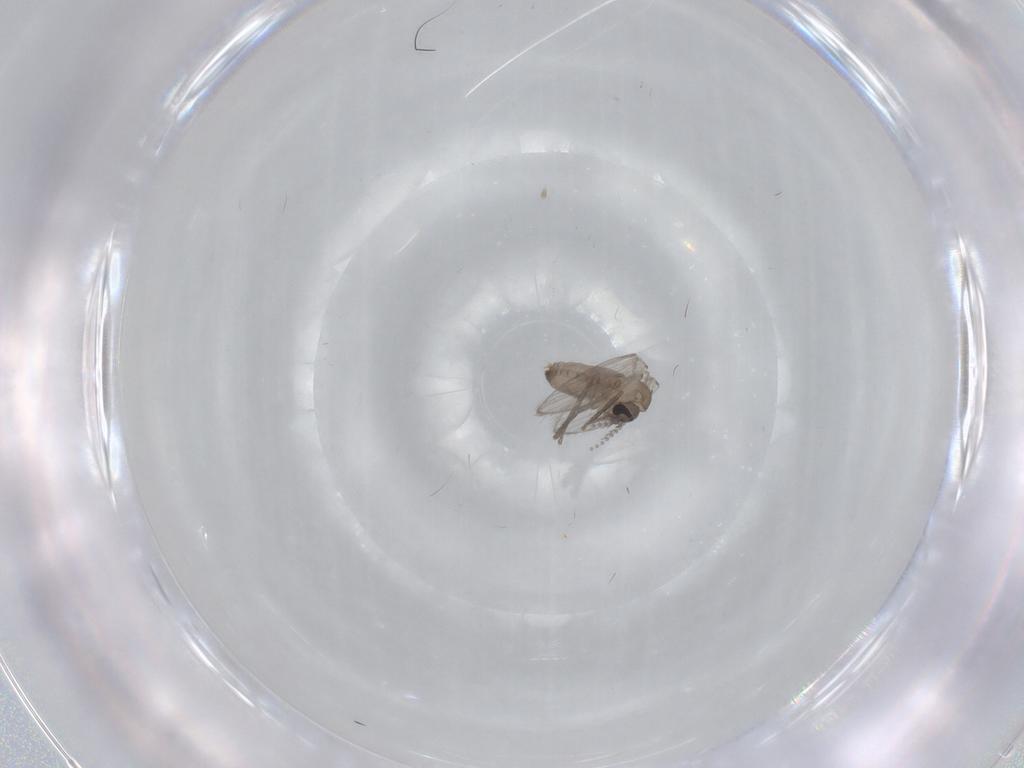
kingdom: Animalia
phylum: Arthropoda
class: Insecta
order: Diptera
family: Psychodidae
